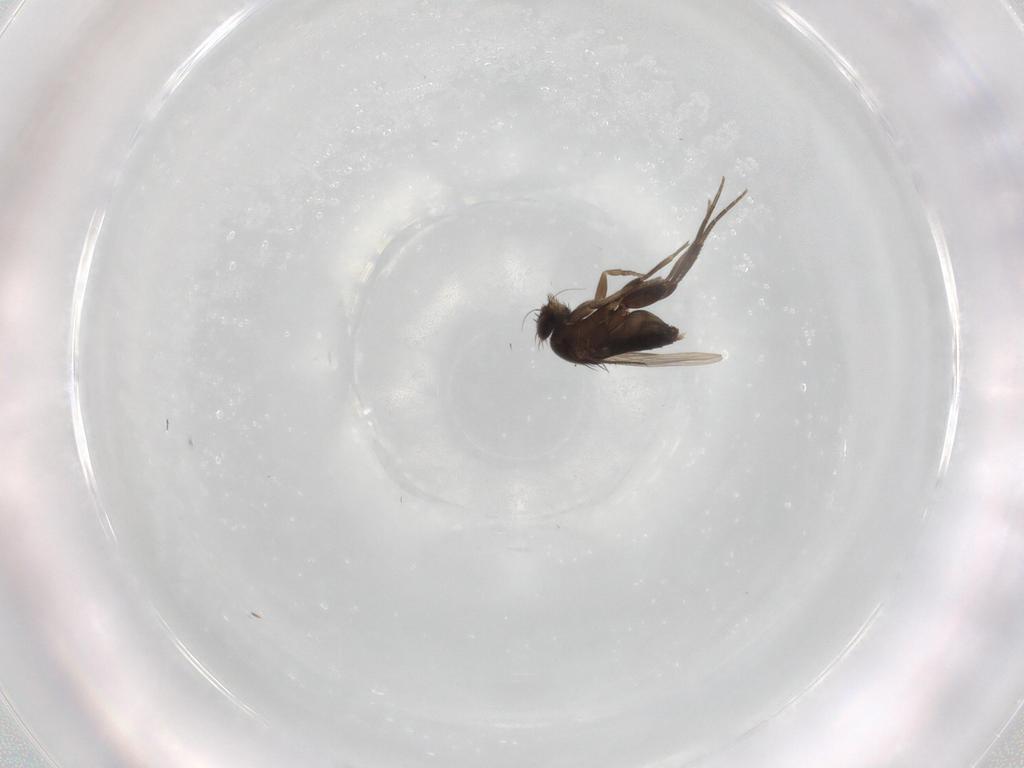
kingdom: Animalia
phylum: Arthropoda
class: Insecta
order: Diptera
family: Phoridae
